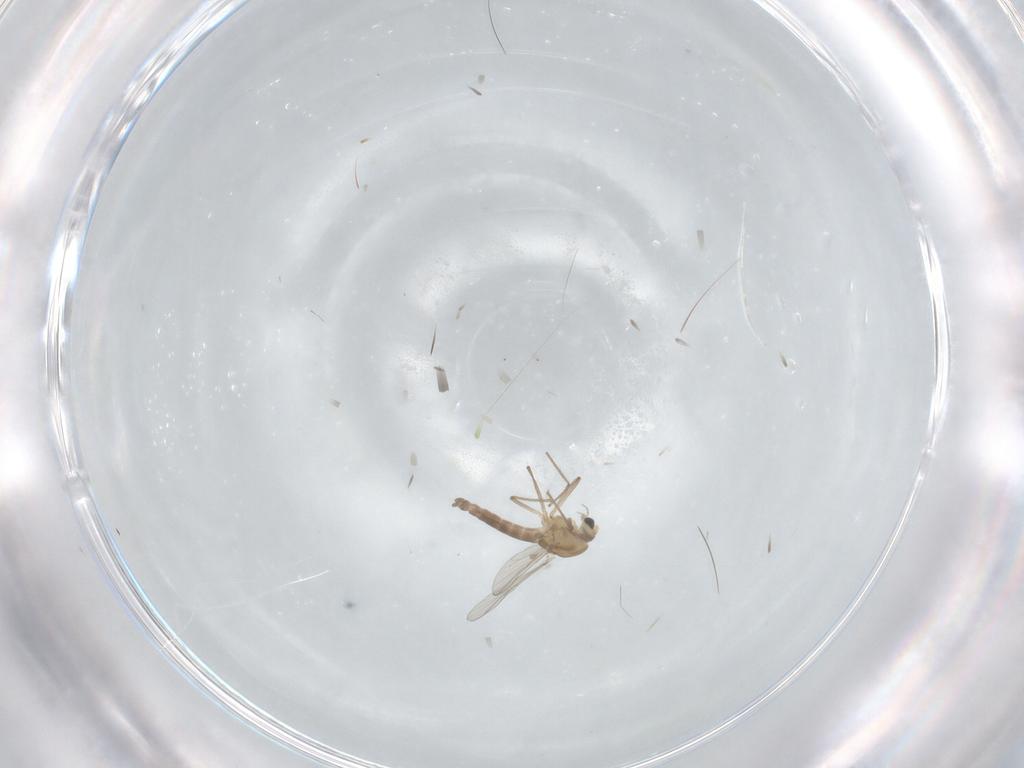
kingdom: Animalia
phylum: Arthropoda
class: Insecta
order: Diptera
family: Chironomidae
